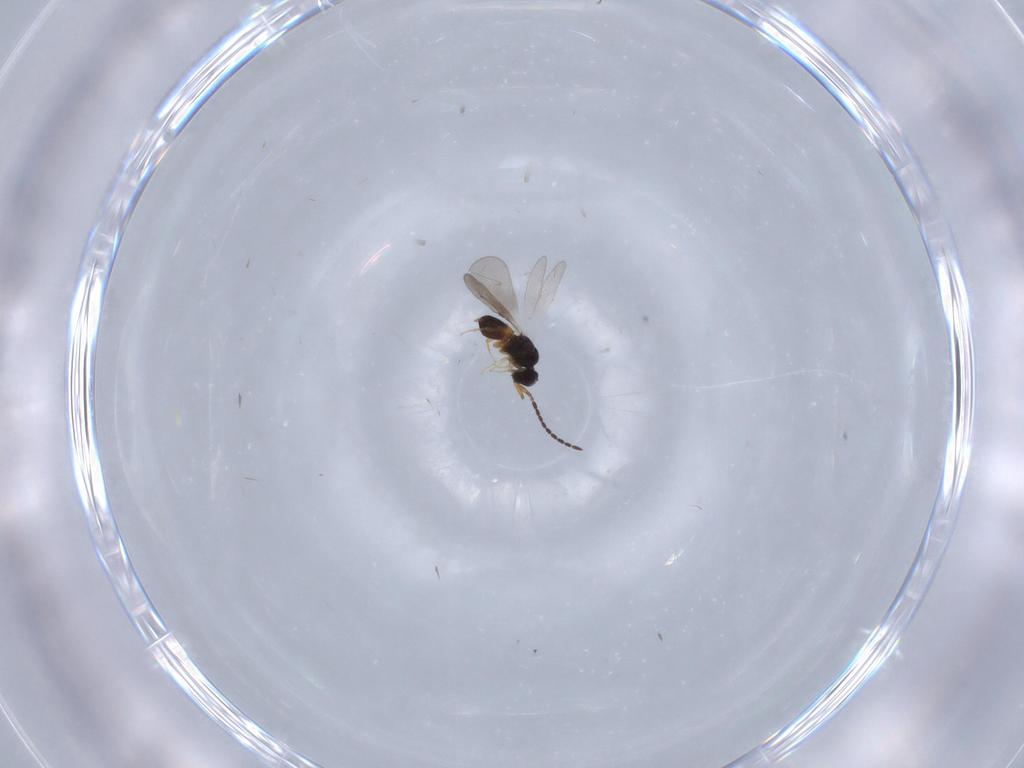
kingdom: Animalia
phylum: Arthropoda
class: Insecta
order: Hymenoptera
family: Ceraphronidae
